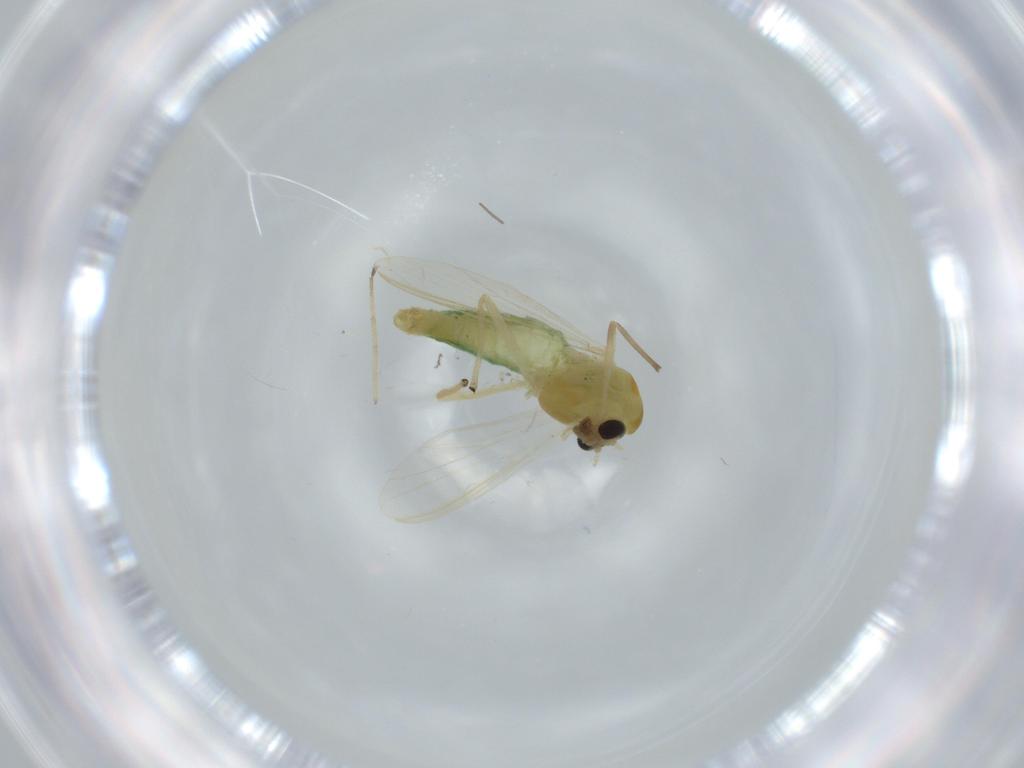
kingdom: Animalia
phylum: Arthropoda
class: Insecta
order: Diptera
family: Chironomidae
